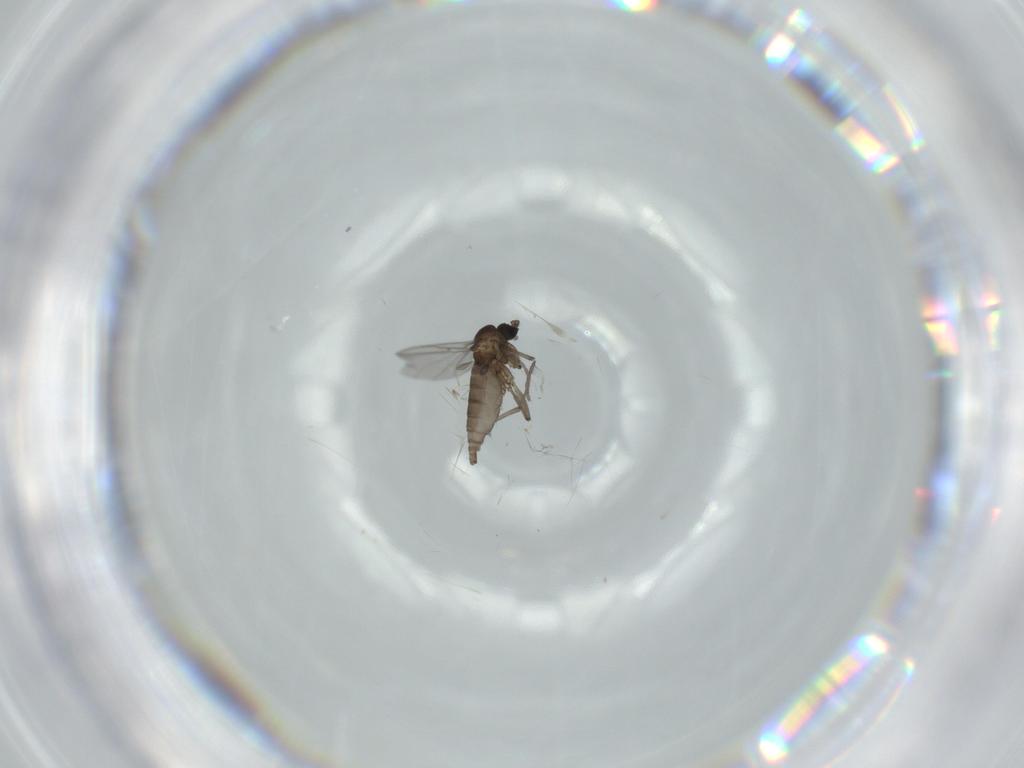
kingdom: Animalia
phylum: Arthropoda
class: Insecta
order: Diptera
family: Sciaridae
